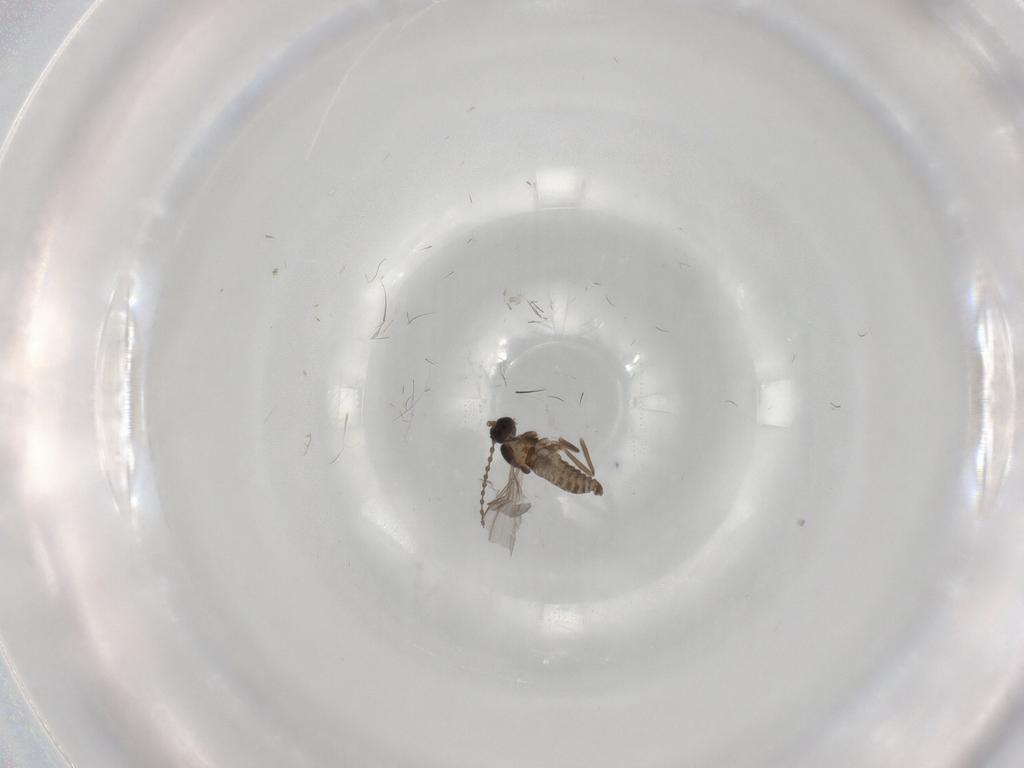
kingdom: Animalia
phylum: Arthropoda
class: Insecta
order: Diptera
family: Cecidomyiidae
